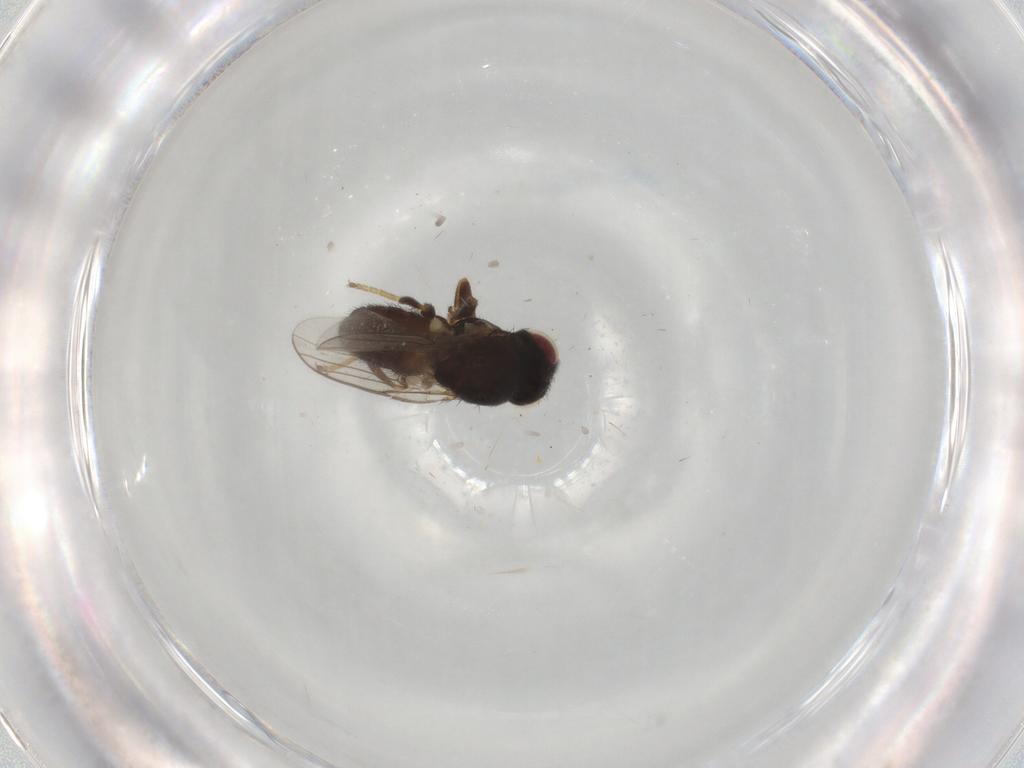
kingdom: Animalia
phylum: Arthropoda
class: Insecta
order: Diptera
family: Chloropidae
